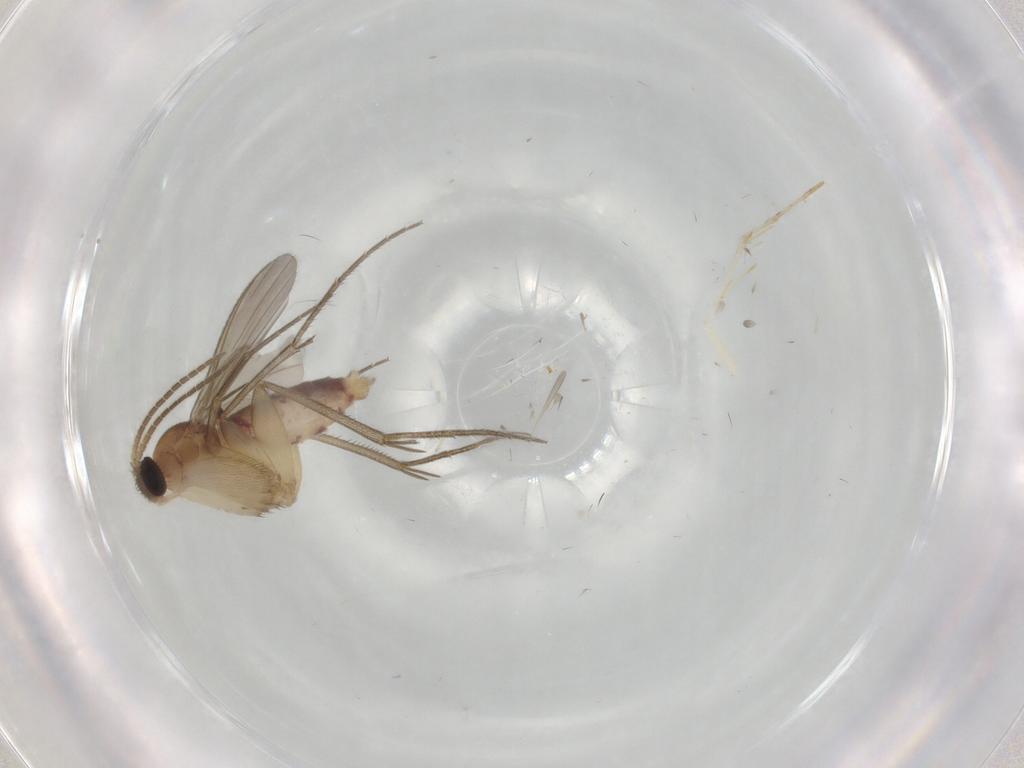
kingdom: Animalia
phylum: Arthropoda
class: Insecta
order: Diptera
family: Mycetophilidae
